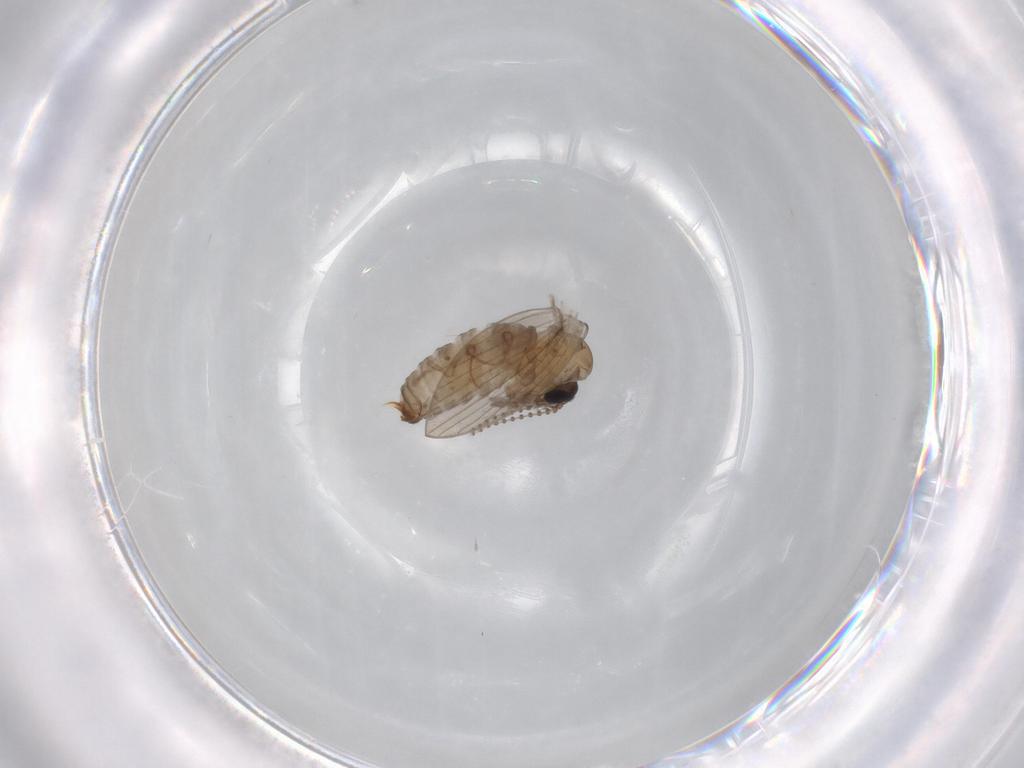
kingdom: Animalia
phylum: Arthropoda
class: Insecta
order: Diptera
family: Psychodidae
